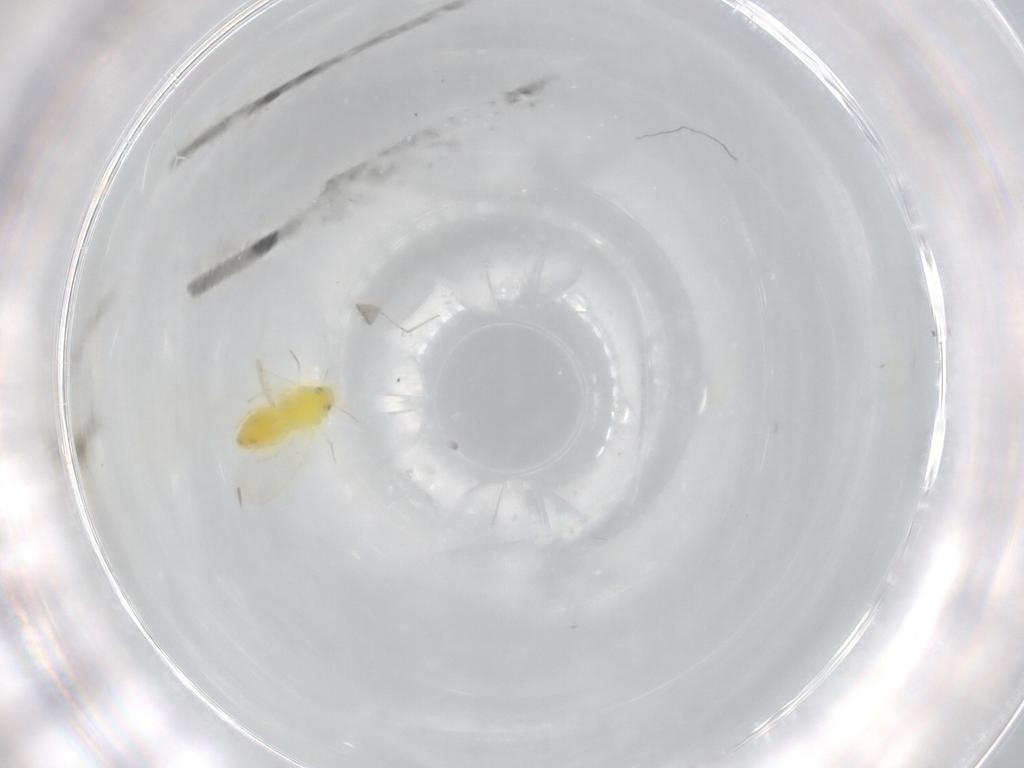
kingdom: Animalia
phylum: Arthropoda
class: Insecta
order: Hemiptera
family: Aleyrodidae
